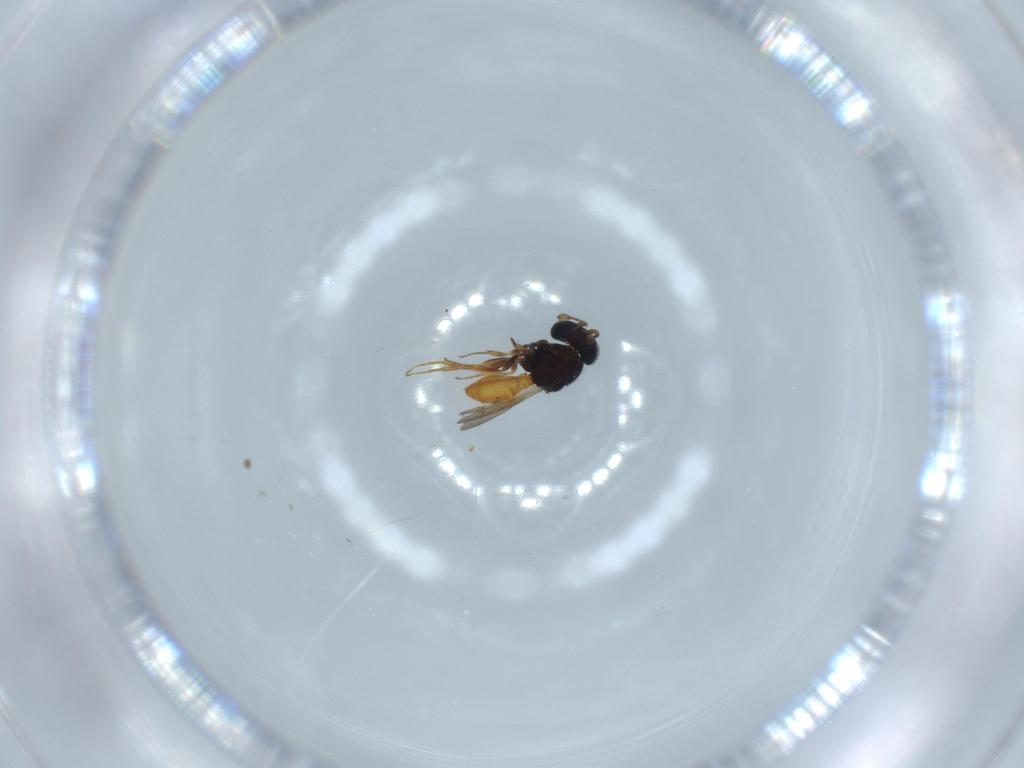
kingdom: Animalia
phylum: Arthropoda
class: Insecta
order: Hymenoptera
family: Scelionidae
